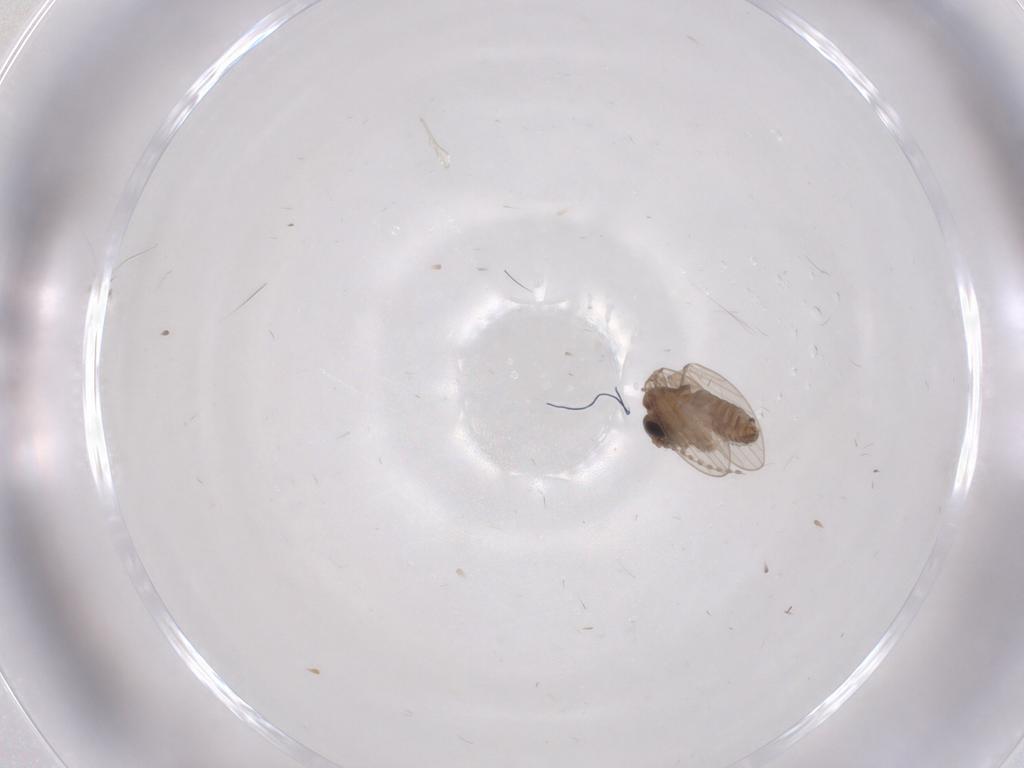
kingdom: Animalia
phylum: Arthropoda
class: Insecta
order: Diptera
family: Psychodidae
